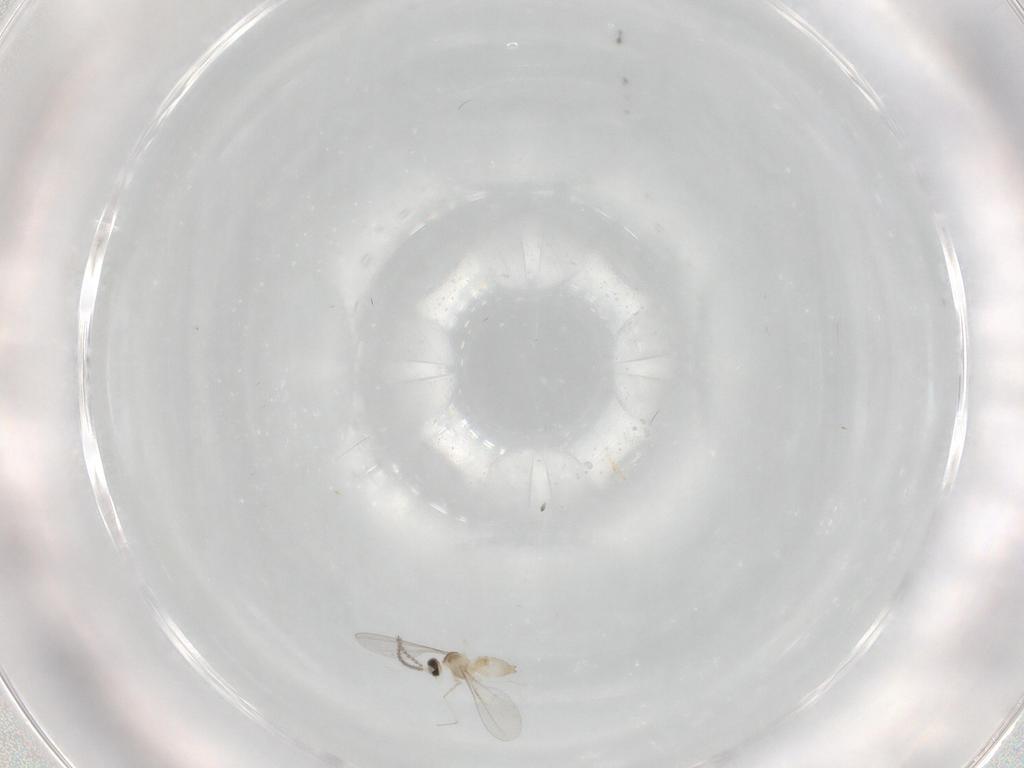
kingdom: Animalia
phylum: Arthropoda
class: Insecta
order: Diptera
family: Cecidomyiidae
